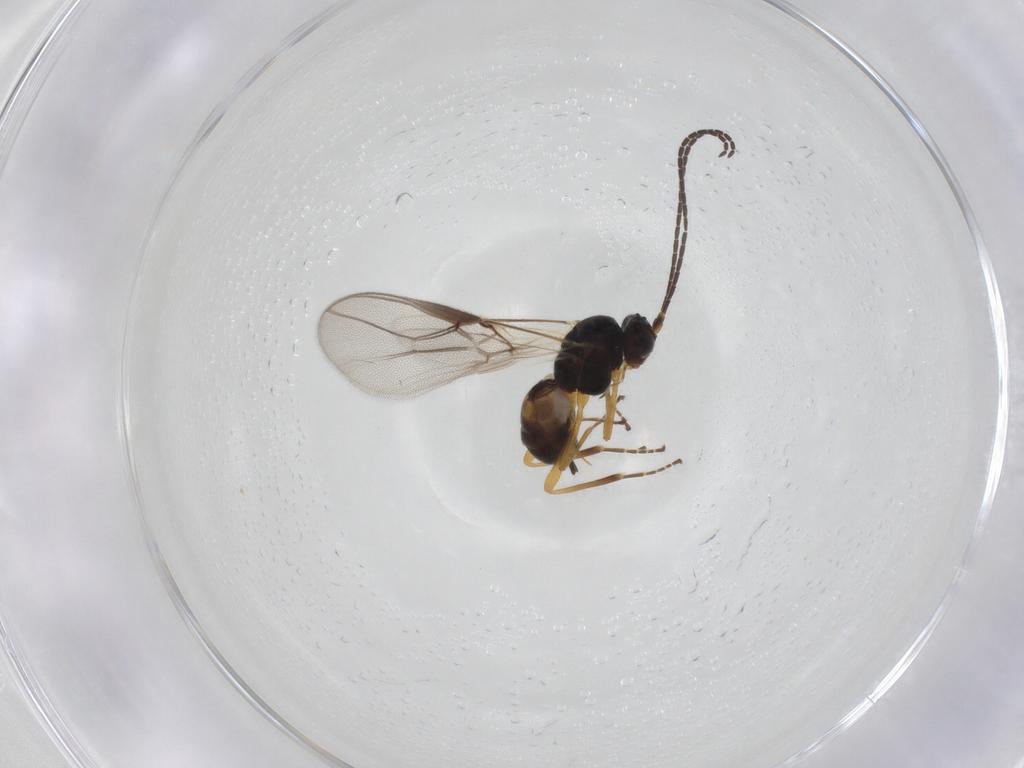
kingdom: Animalia
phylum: Arthropoda
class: Insecta
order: Hymenoptera
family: Braconidae
